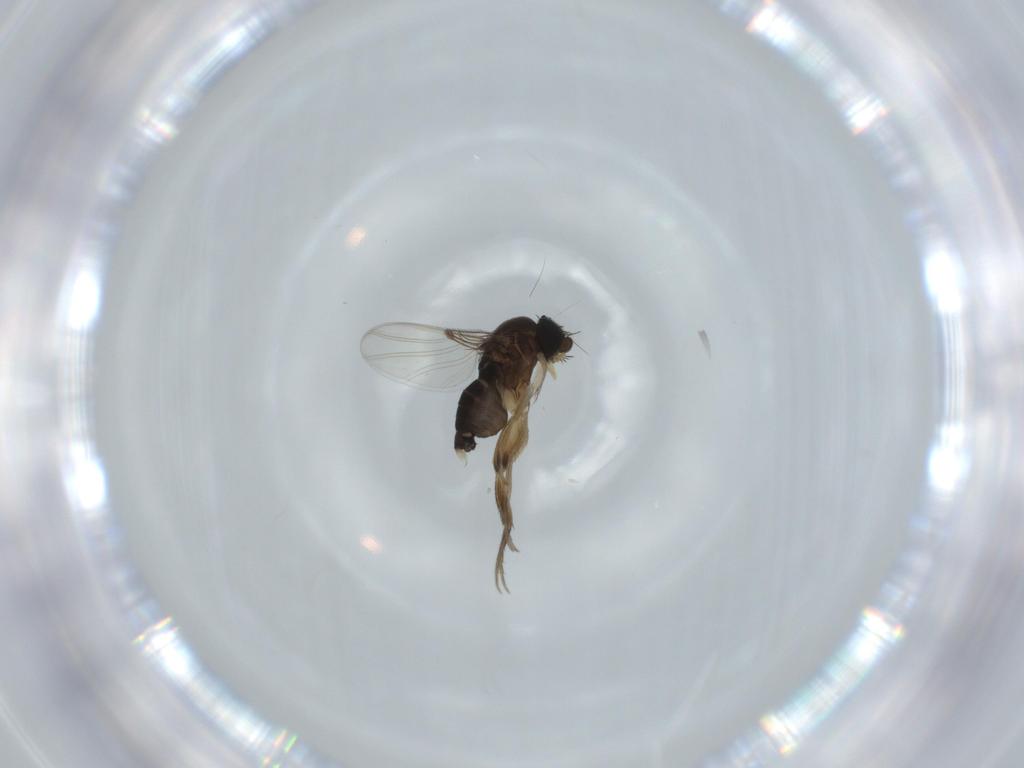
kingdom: Animalia
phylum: Arthropoda
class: Insecta
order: Diptera
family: Phoridae
